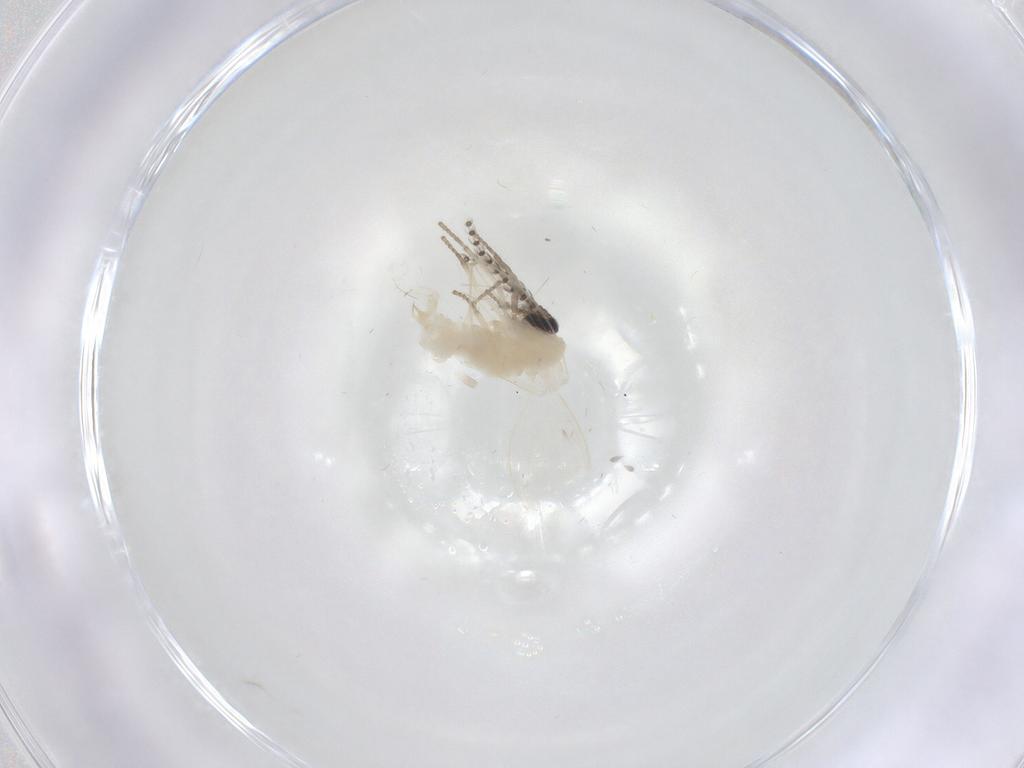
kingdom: Animalia
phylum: Arthropoda
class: Insecta
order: Diptera
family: Psychodidae
